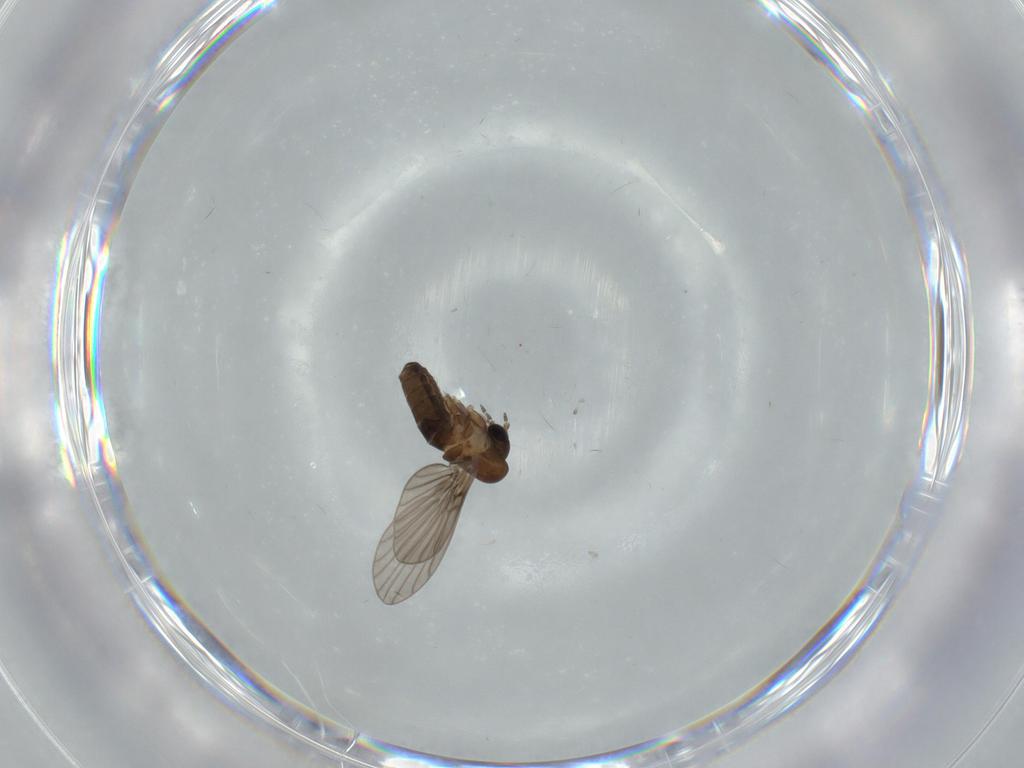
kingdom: Animalia
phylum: Arthropoda
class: Insecta
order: Diptera
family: Psychodidae
